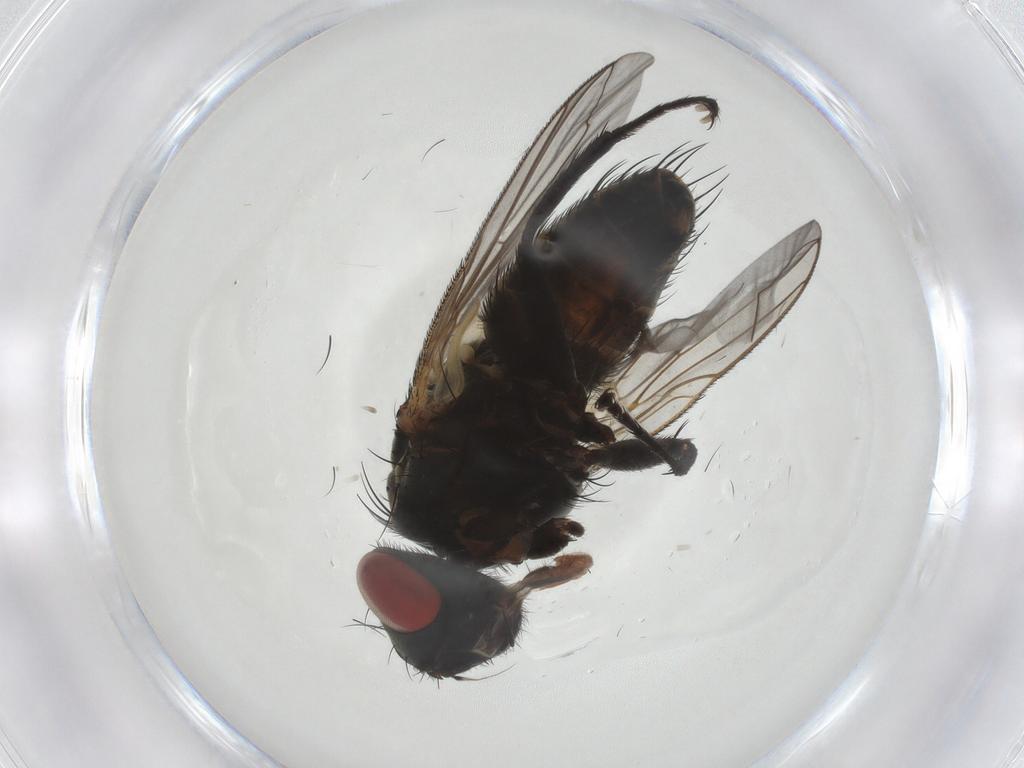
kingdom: Animalia
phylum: Arthropoda
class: Insecta
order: Diptera
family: Sarcophagidae
